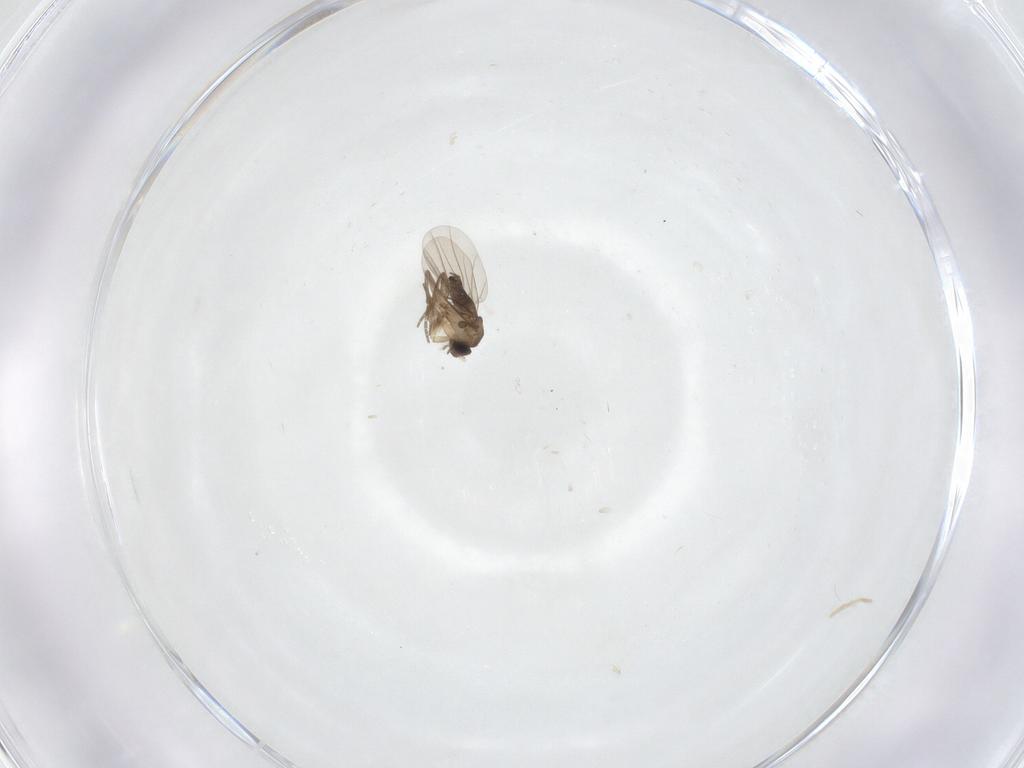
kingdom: Animalia
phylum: Arthropoda
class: Insecta
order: Diptera
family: Phoridae
